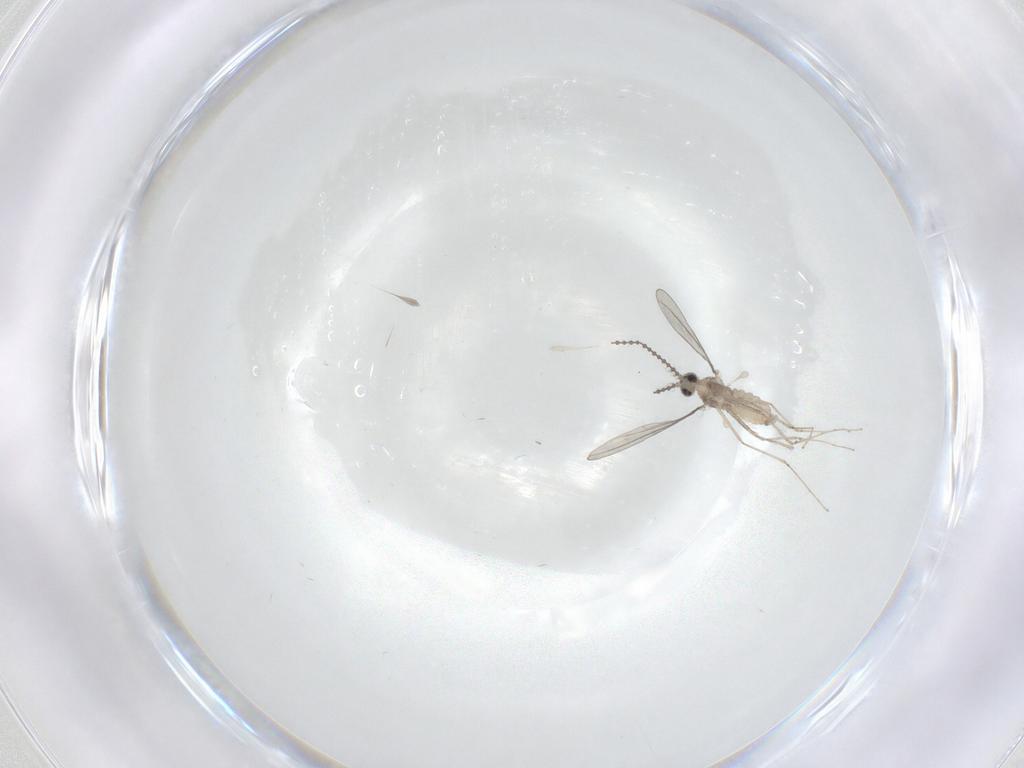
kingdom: Animalia
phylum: Arthropoda
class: Insecta
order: Diptera
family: Cecidomyiidae
